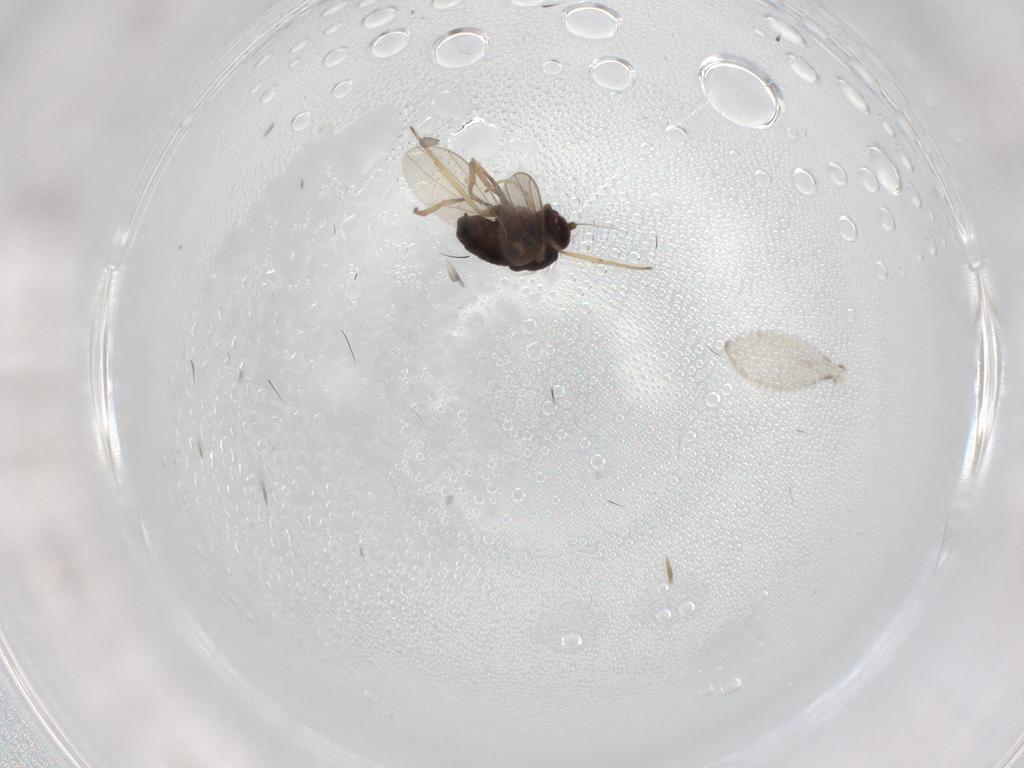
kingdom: Animalia
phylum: Arthropoda
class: Insecta
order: Diptera
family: Dolichopodidae
